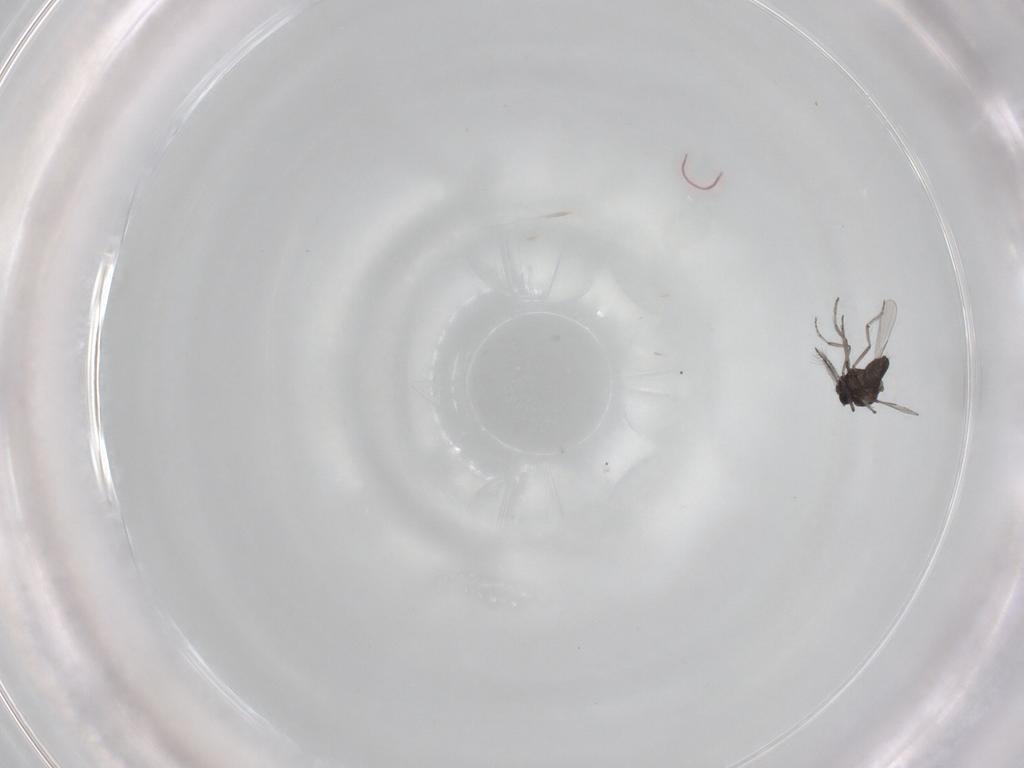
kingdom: Animalia
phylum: Arthropoda
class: Insecta
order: Diptera
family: Ceratopogonidae
